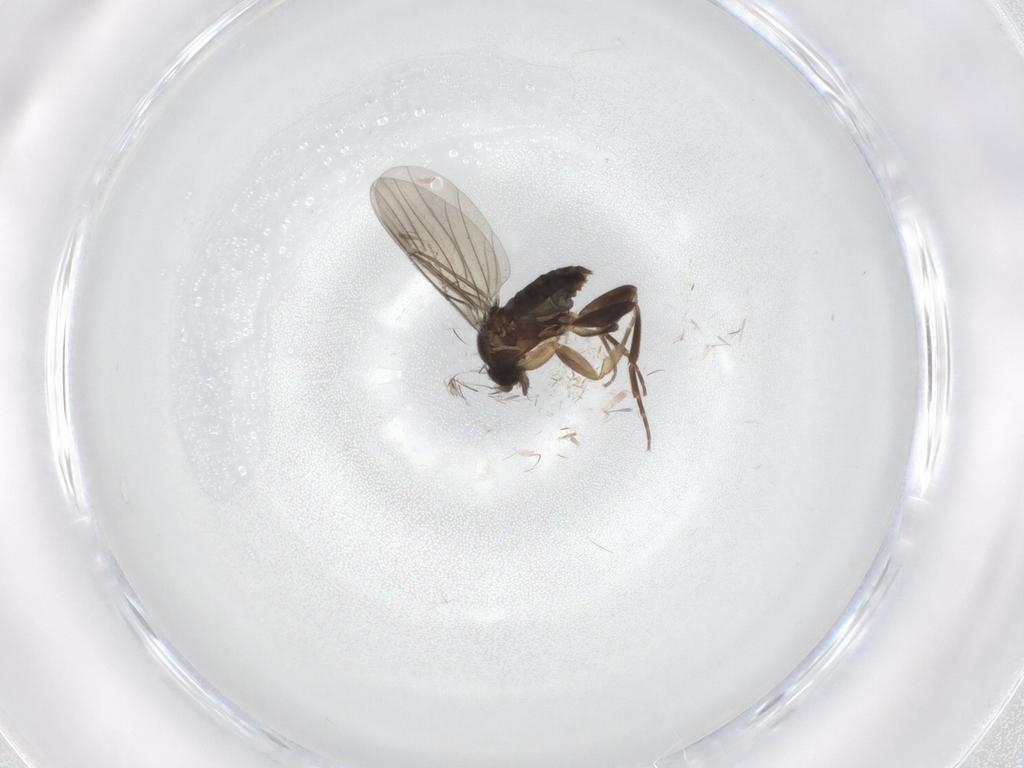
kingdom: Animalia
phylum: Arthropoda
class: Insecta
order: Diptera
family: Phoridae
